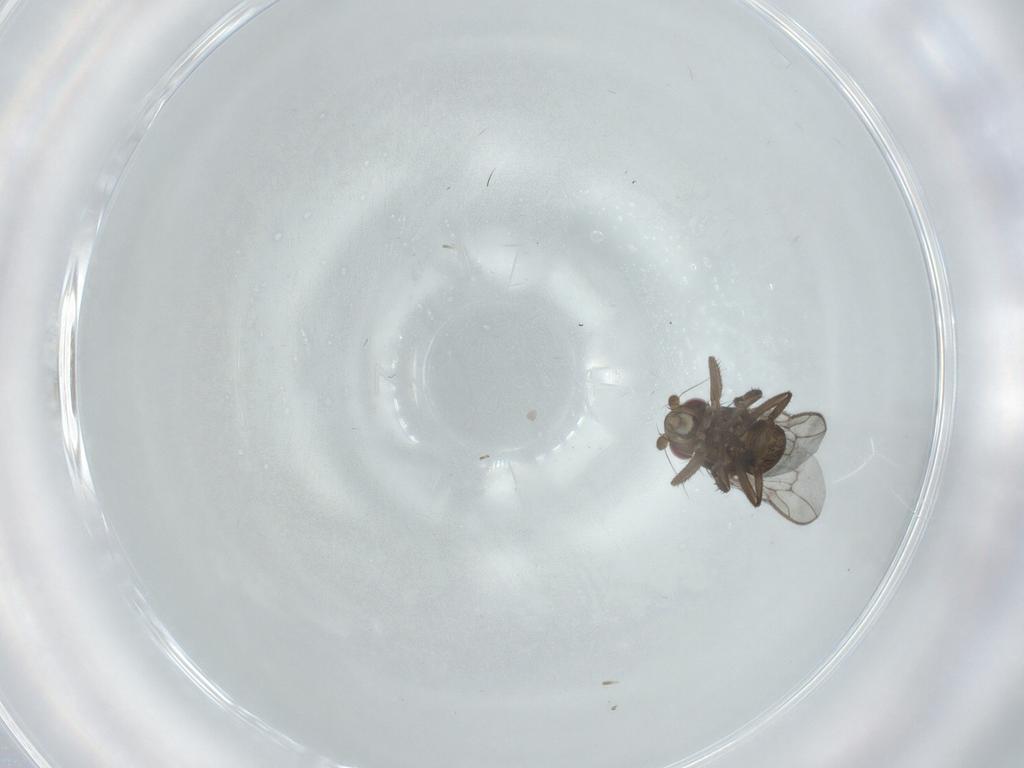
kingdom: Animalia
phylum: Arthropoda
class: Insecta
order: Diptera
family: Sphaeroceridae
